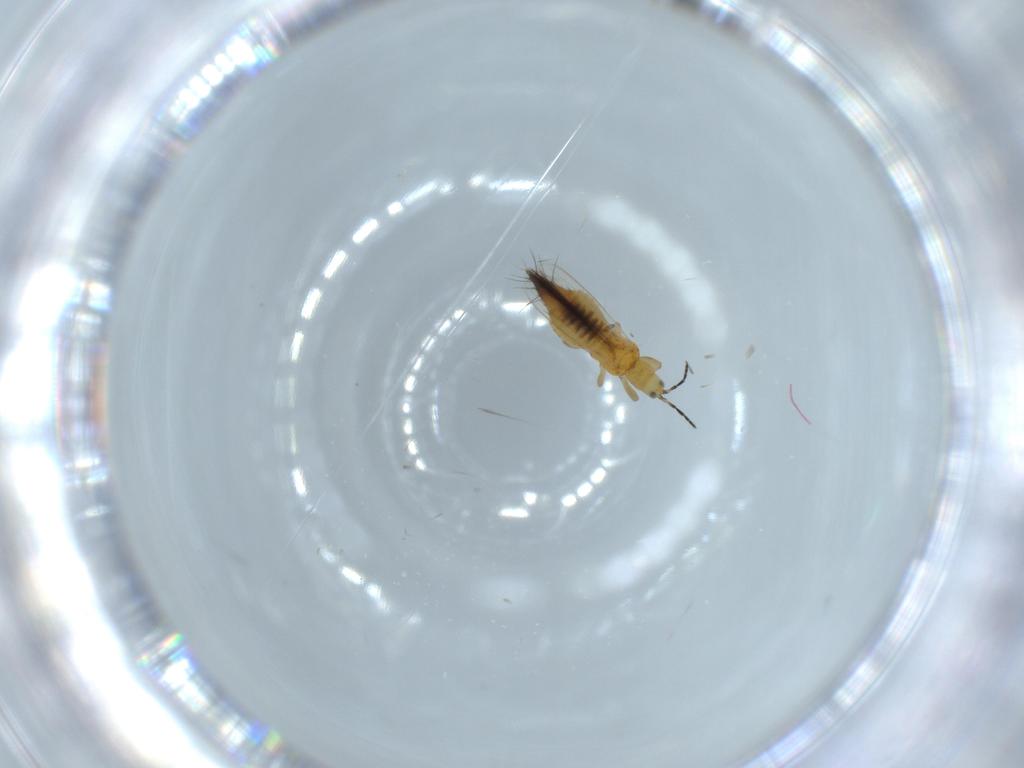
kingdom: Animalia
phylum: Arthropoda
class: Insecta
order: Thysanoptera
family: Aeolothripidae
